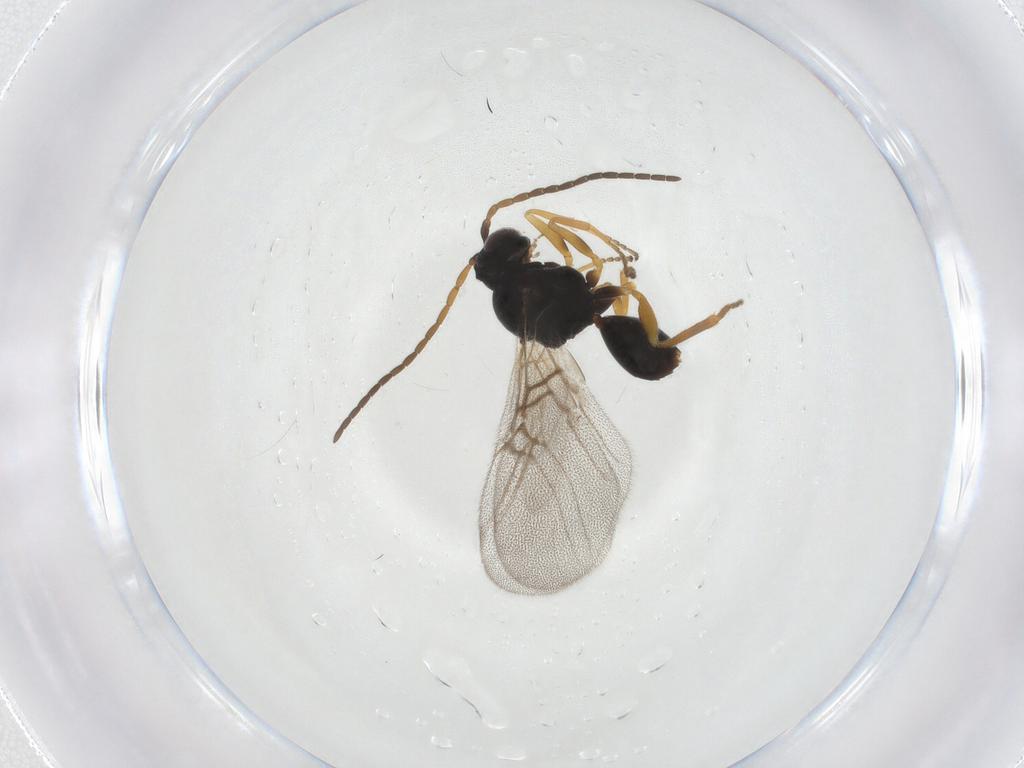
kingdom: Animalia
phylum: Arthropoda
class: Insecta
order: Hymenoptera
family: Cynipidae
